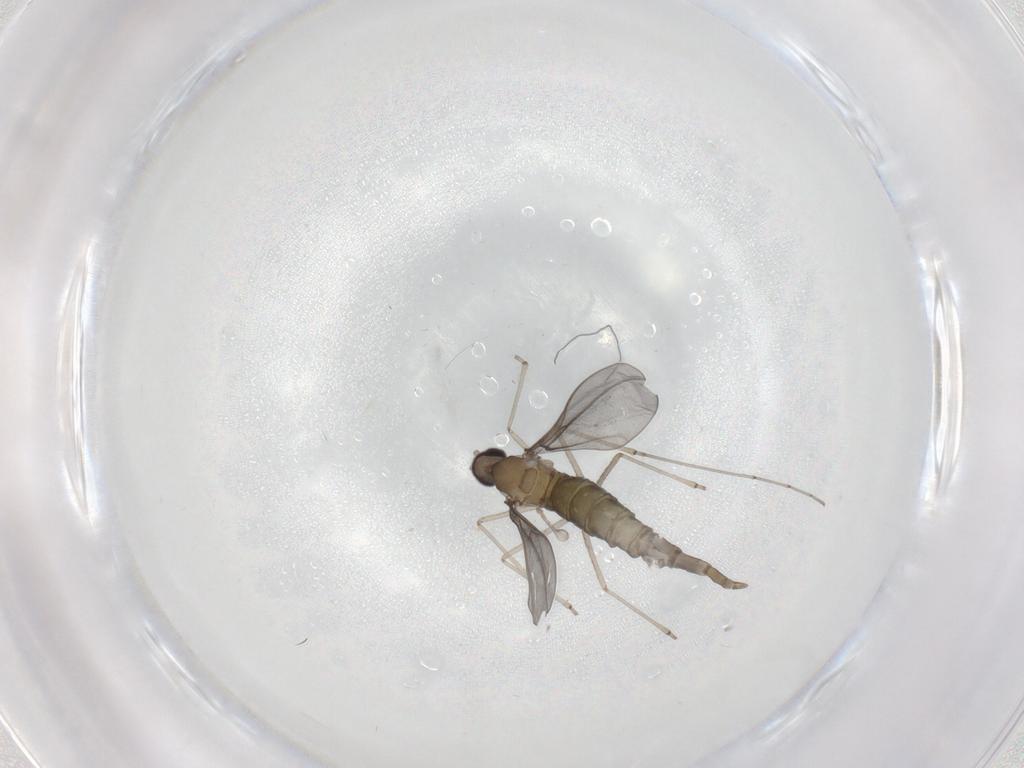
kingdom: Animalia
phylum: Arthropoda
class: Insecta
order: Diptera
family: Cecidomyiidae
